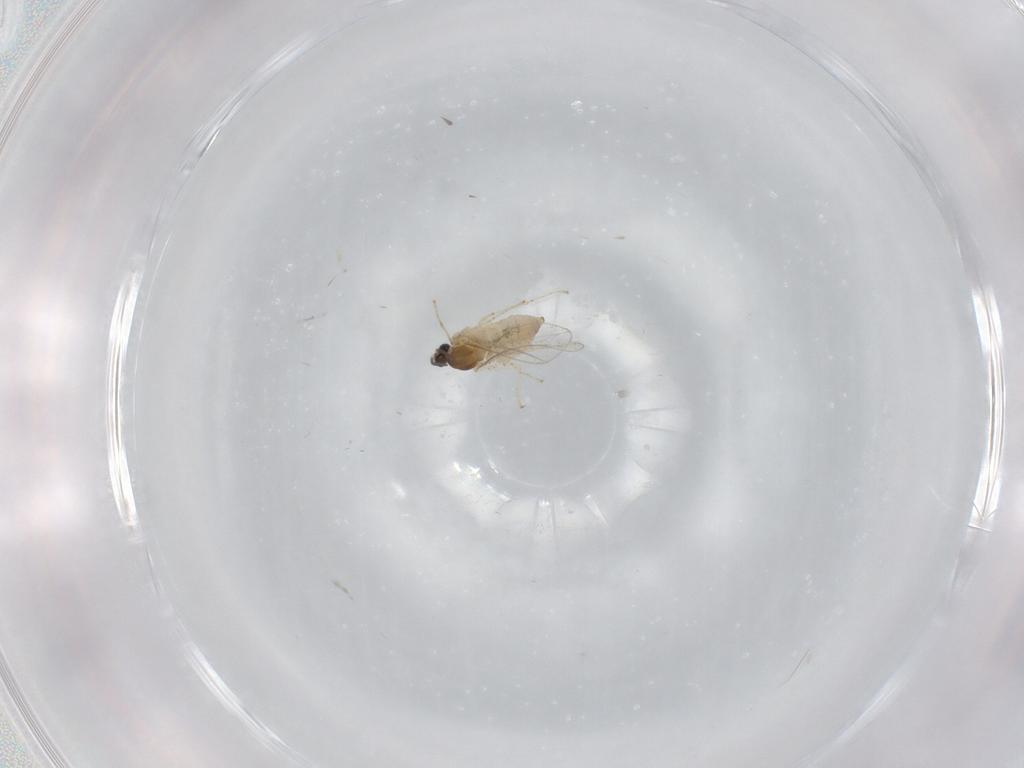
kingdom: Animalia
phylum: Arthropoda
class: Insecta
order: Diptera
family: Cecidomyiidae
